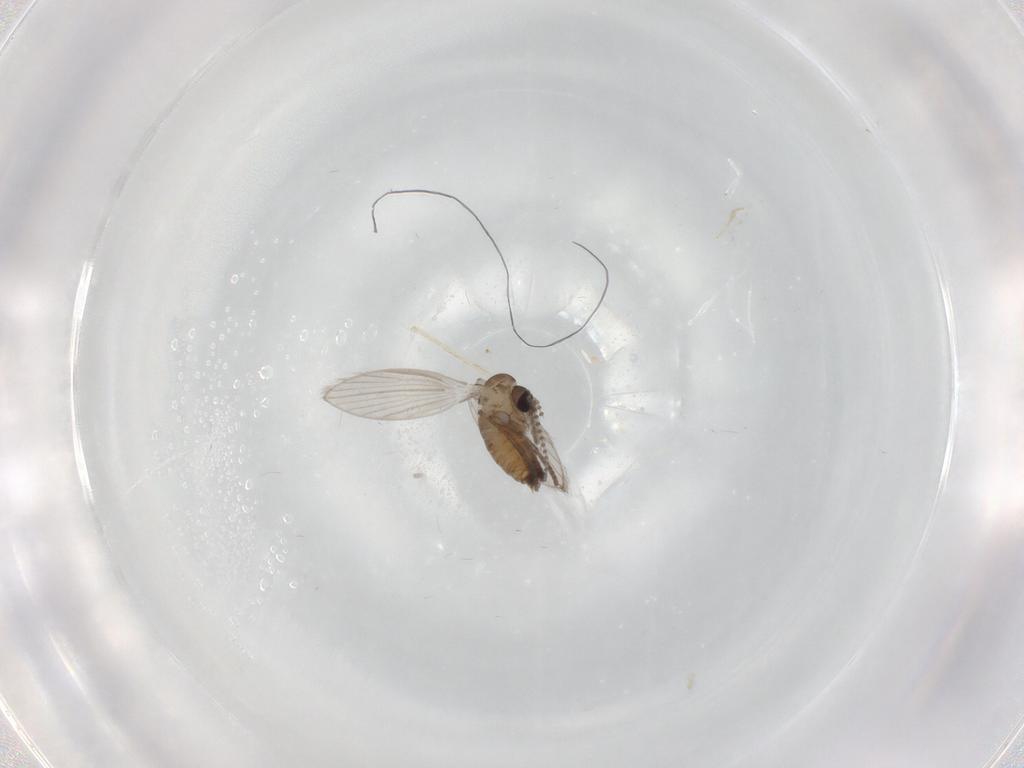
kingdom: Animalia
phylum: Arthropoda
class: Insecta
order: Diptera
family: Psychodidae
